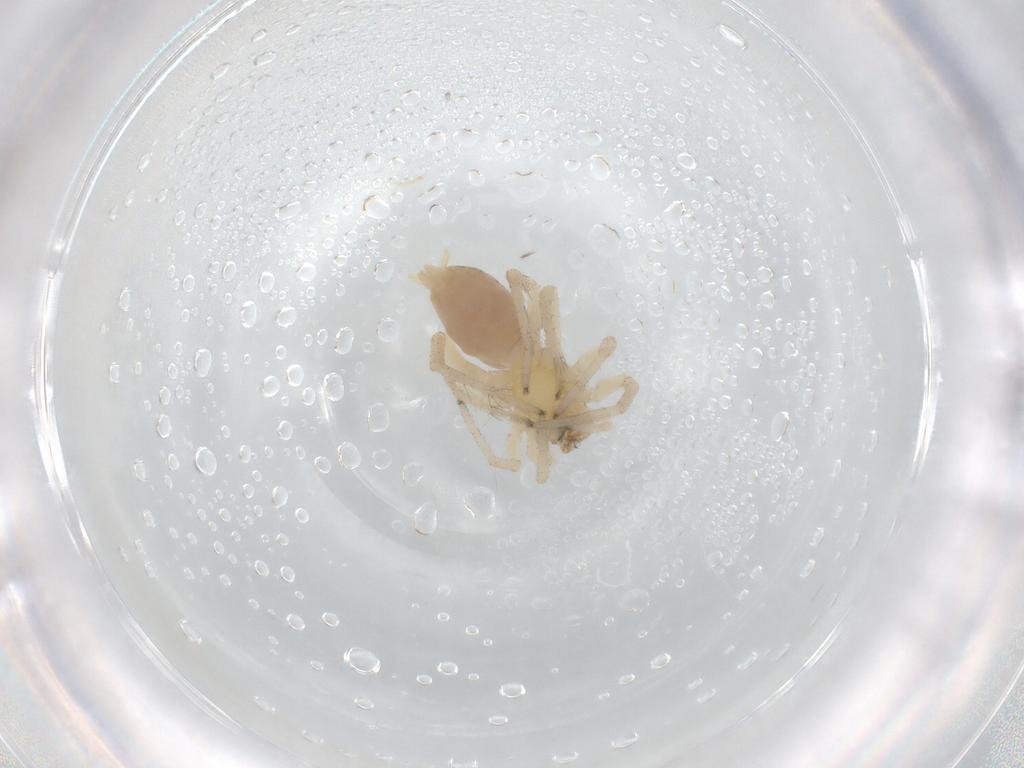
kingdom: Animalia
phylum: Arthropoda
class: Arachnida
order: Araneae
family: Anyphaenidae
